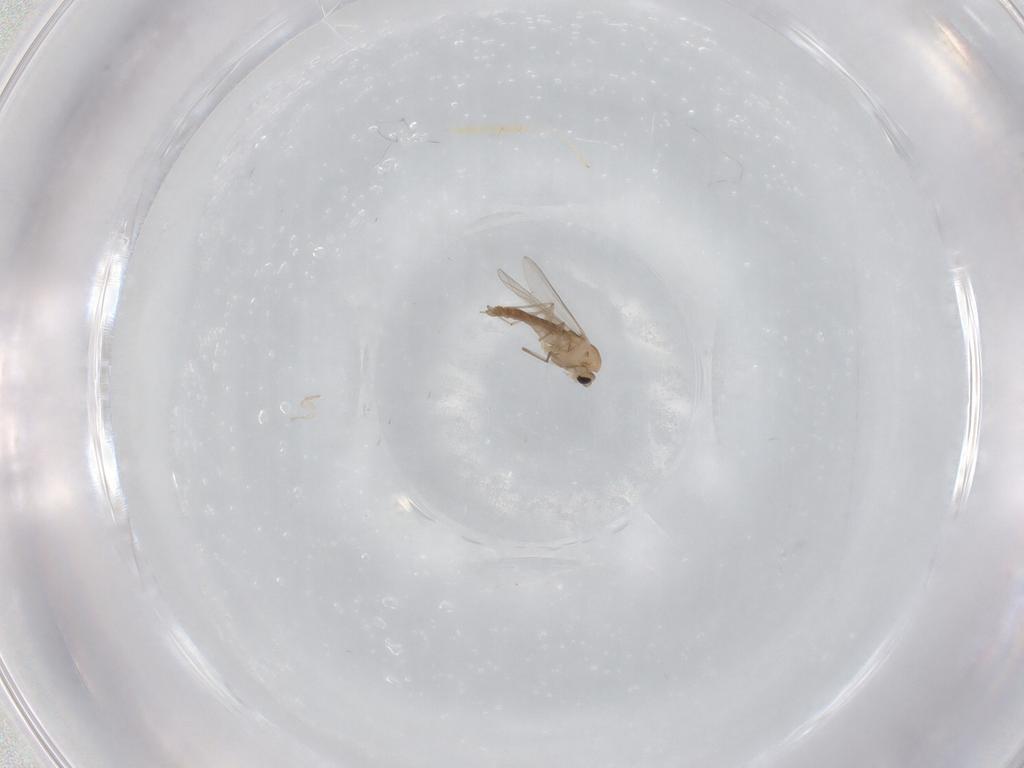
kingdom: Animalia
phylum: Arthropoda
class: Insecta
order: Diptera
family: Chironomidae
